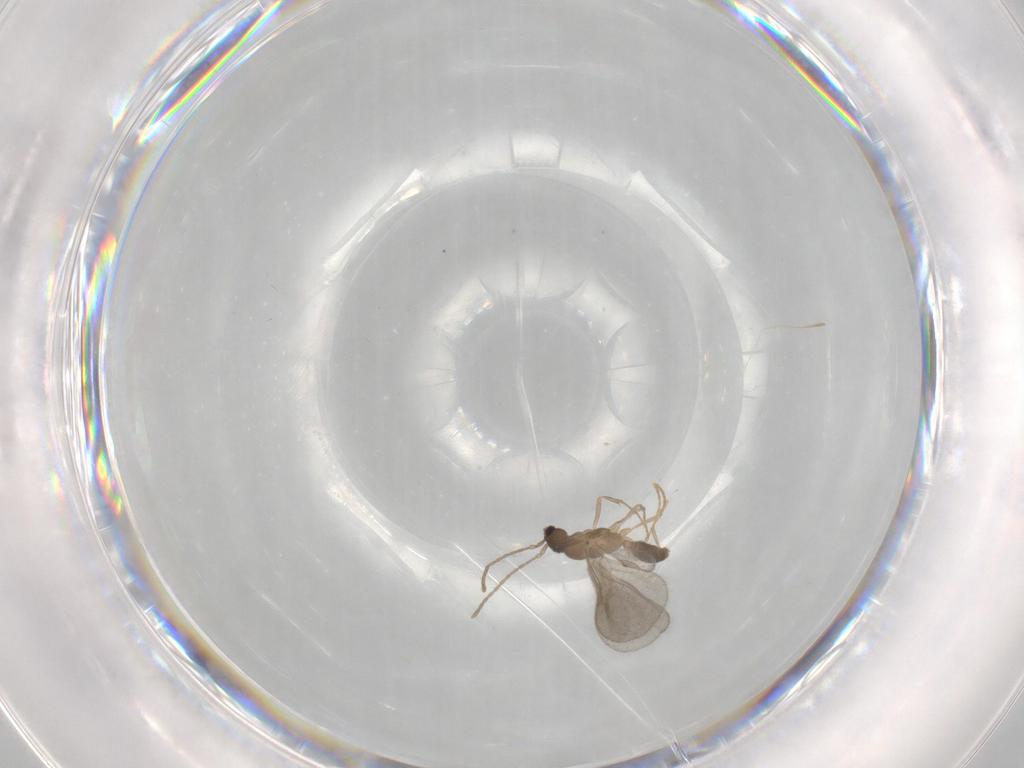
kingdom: Animalia
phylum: Arthropoda
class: Insecta
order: Hymenoptera
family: Formicidae
